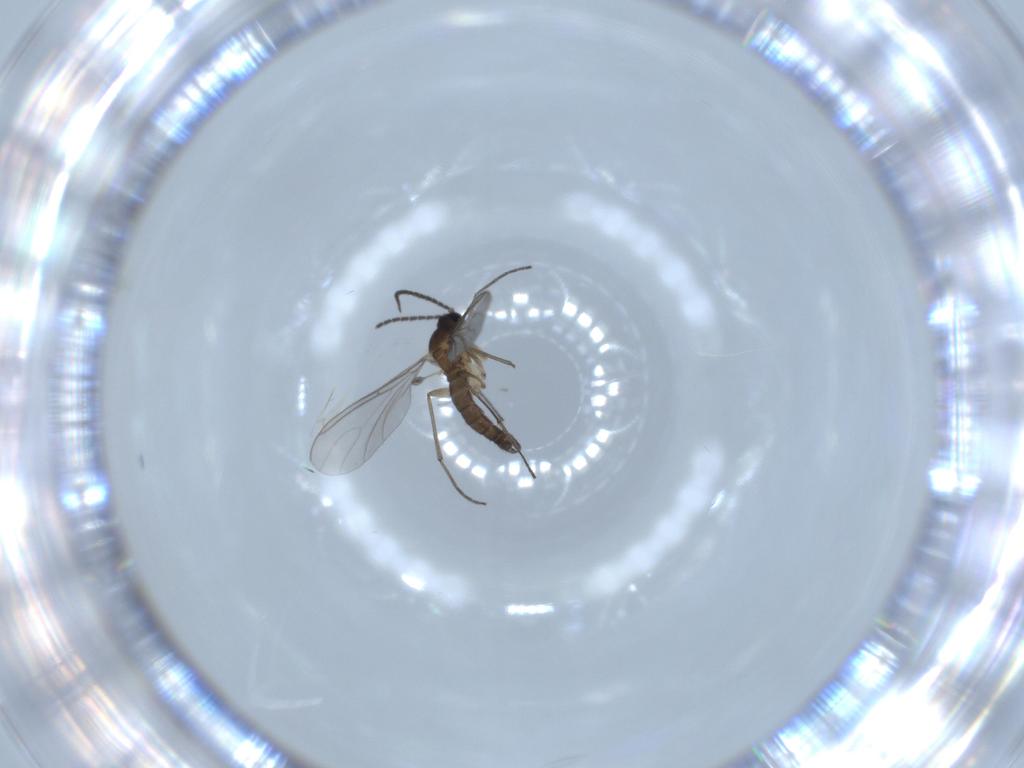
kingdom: Animalia
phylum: Arthropoda
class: Insecta
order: Diptera
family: Sciaridae
